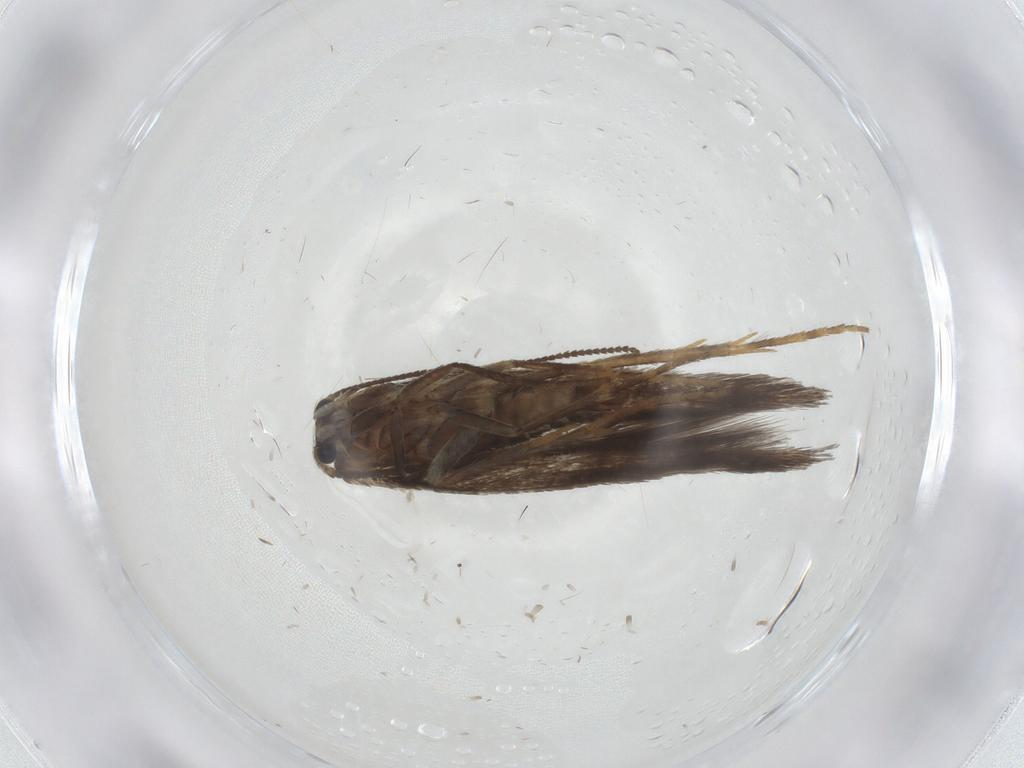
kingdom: Animalia
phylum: Arthropoda
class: Insecta
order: Lepidoptera
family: Nepticulidae
